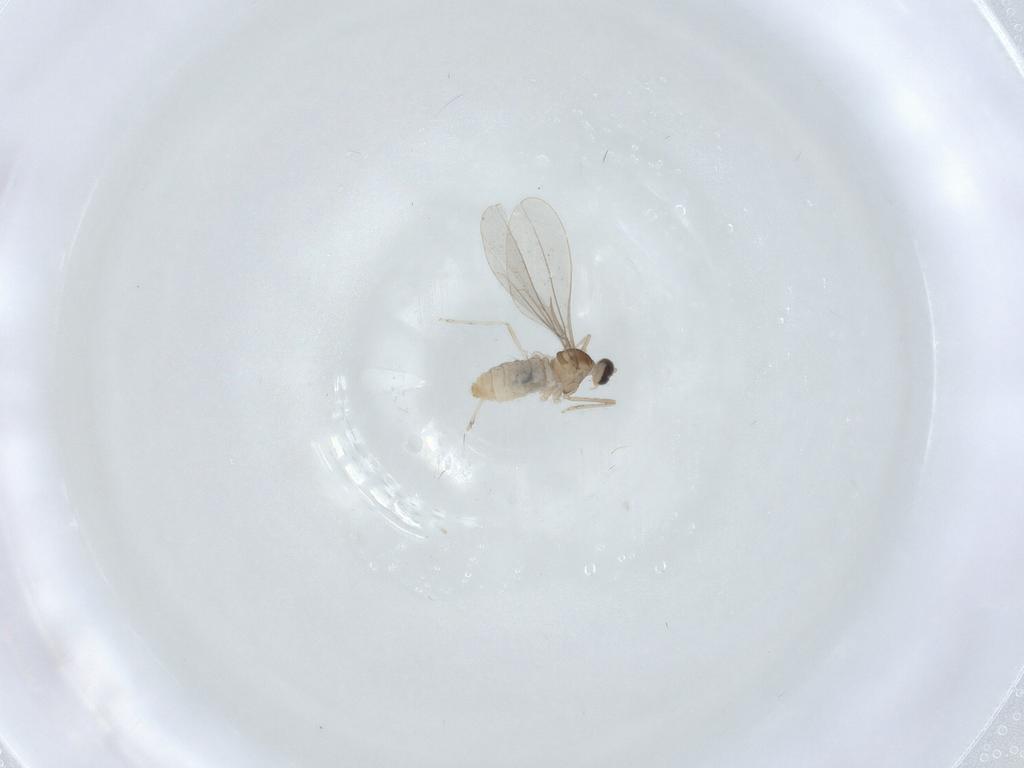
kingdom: Animalia
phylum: Arthropoda
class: Insecta
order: Diptera
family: Cecidomyiidae
